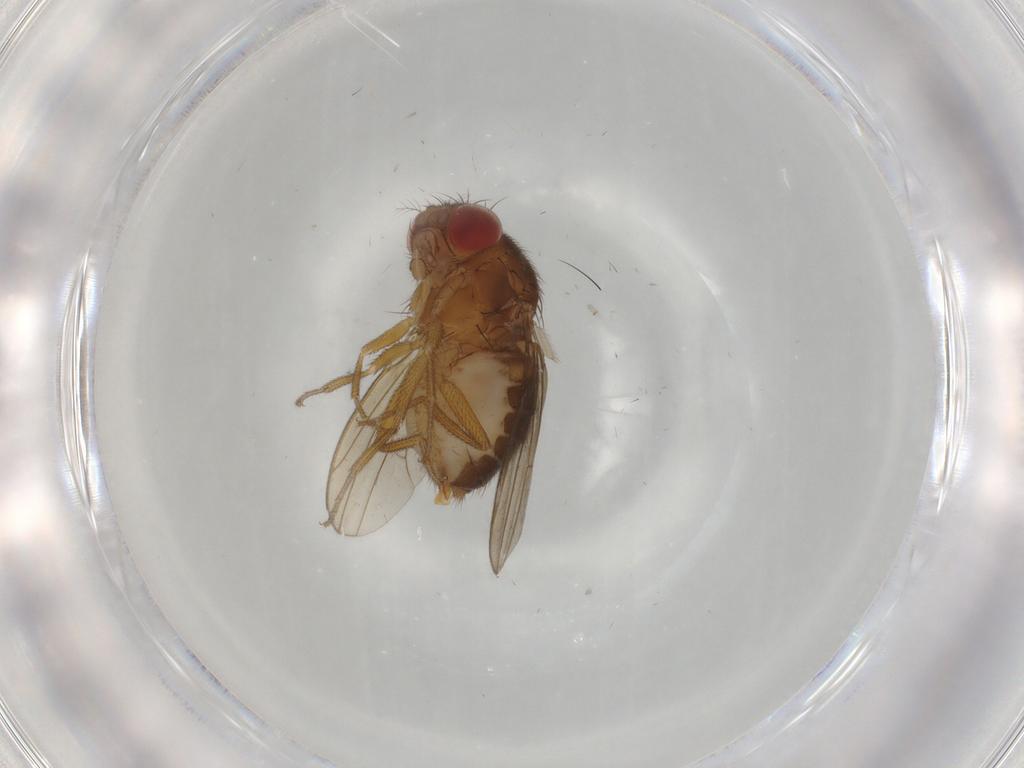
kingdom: Animalia
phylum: Arthropoda
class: Insecta
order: Diptera
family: Drosophilidae
